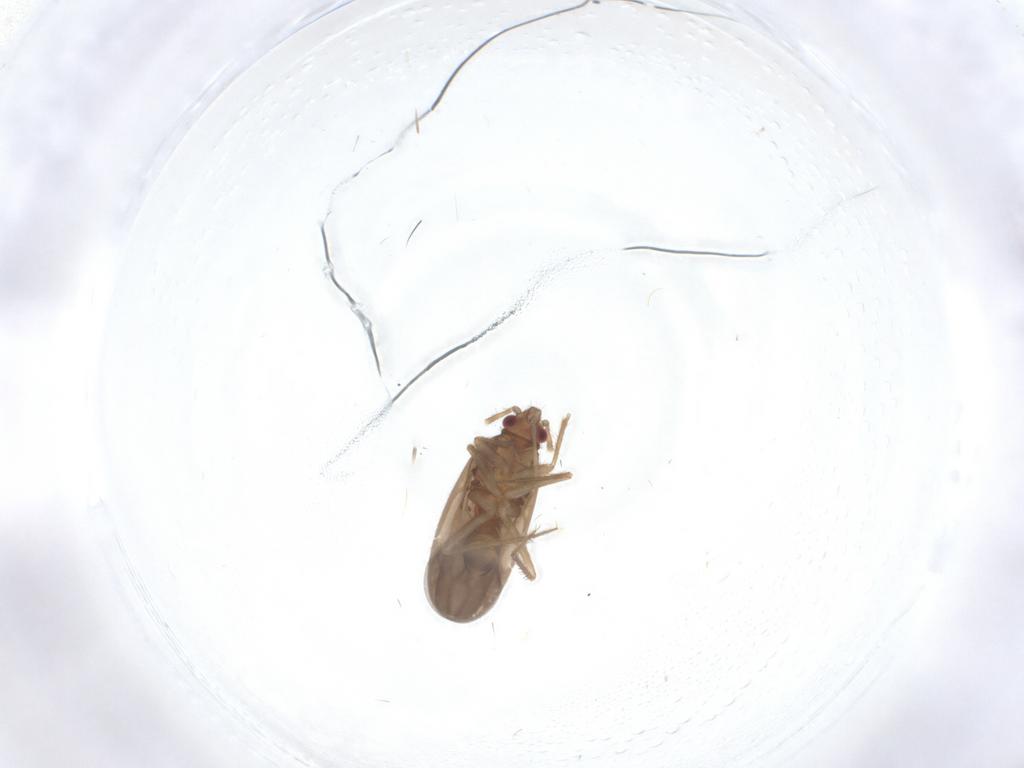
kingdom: Animalia
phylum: Arthropoda
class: Insecta
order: Hemiptera
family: Ceratocombidae
